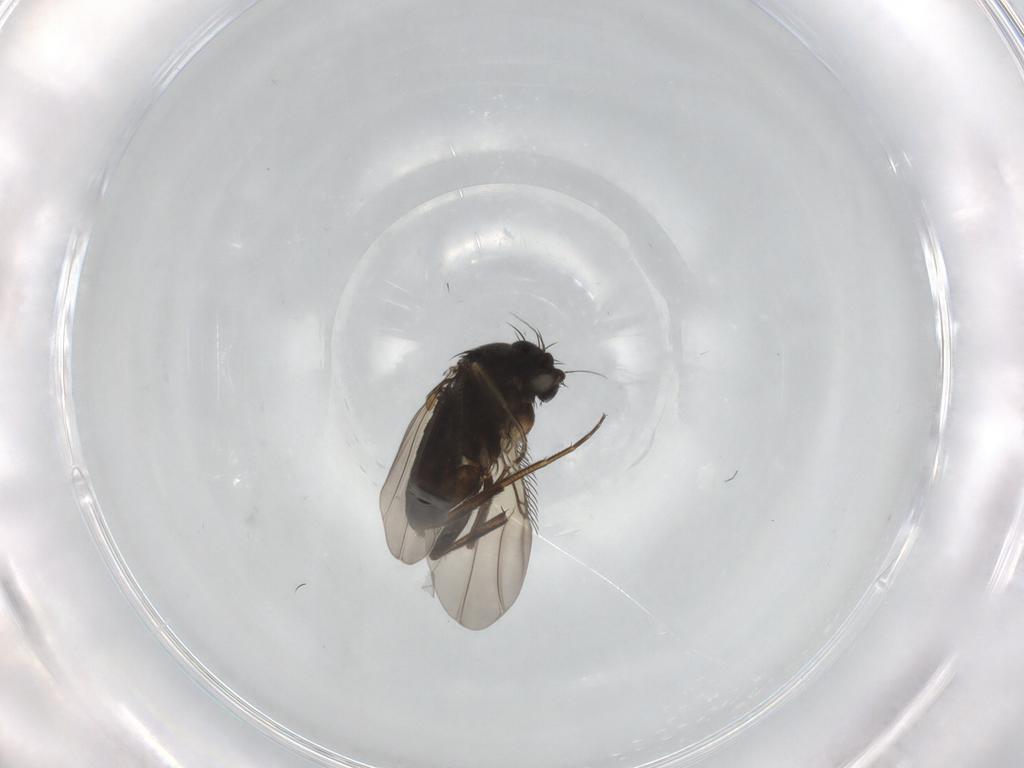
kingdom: Animalia
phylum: Arthropoda
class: Insecta
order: Diptera
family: Phoridae
